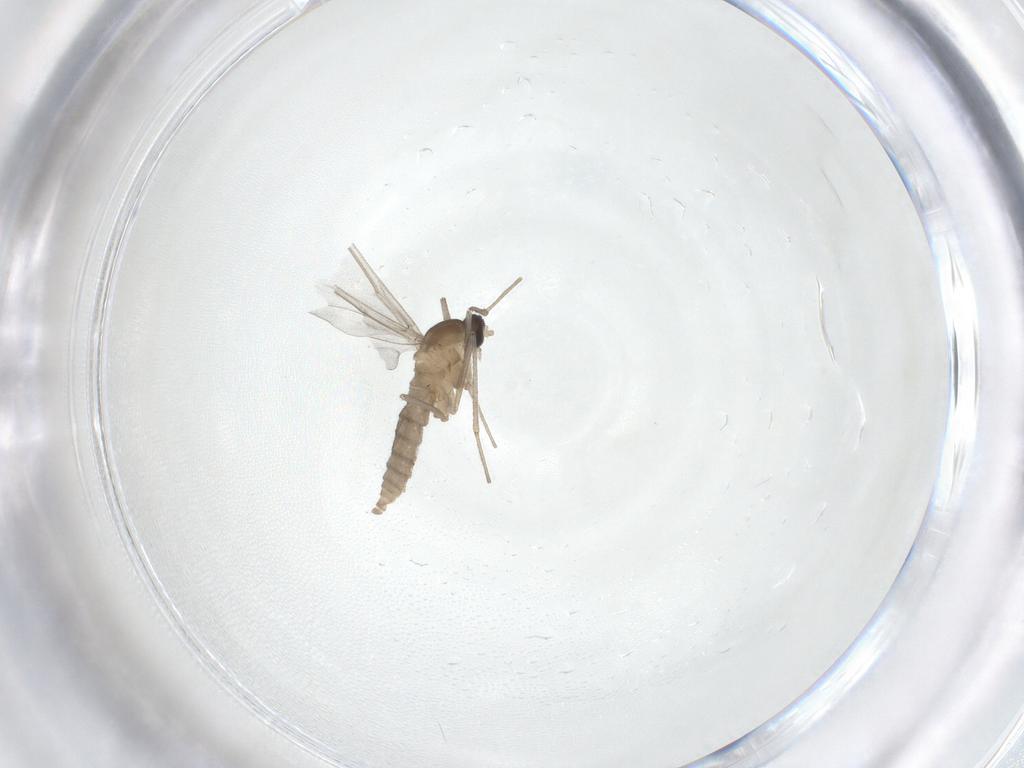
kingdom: Animalia
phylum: Arthropoda
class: Insecta
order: Diptera
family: Cecidomyiidae
